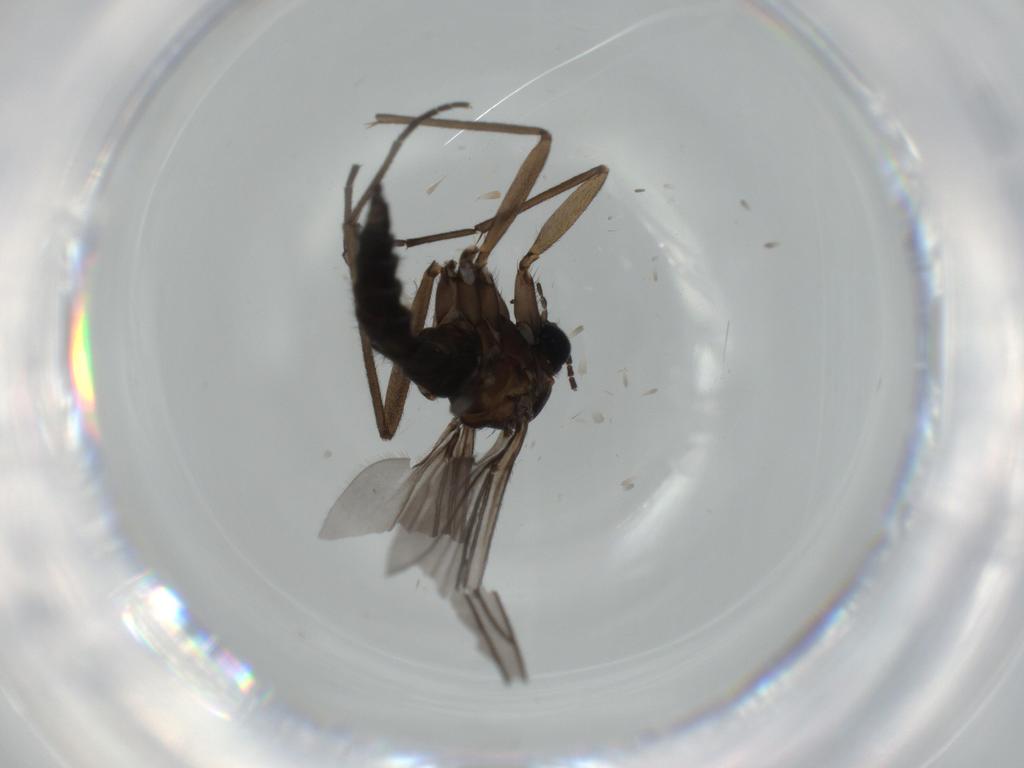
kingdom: Animalia
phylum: Arthropoda
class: Insecta
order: Diptera
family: Sciaridae
